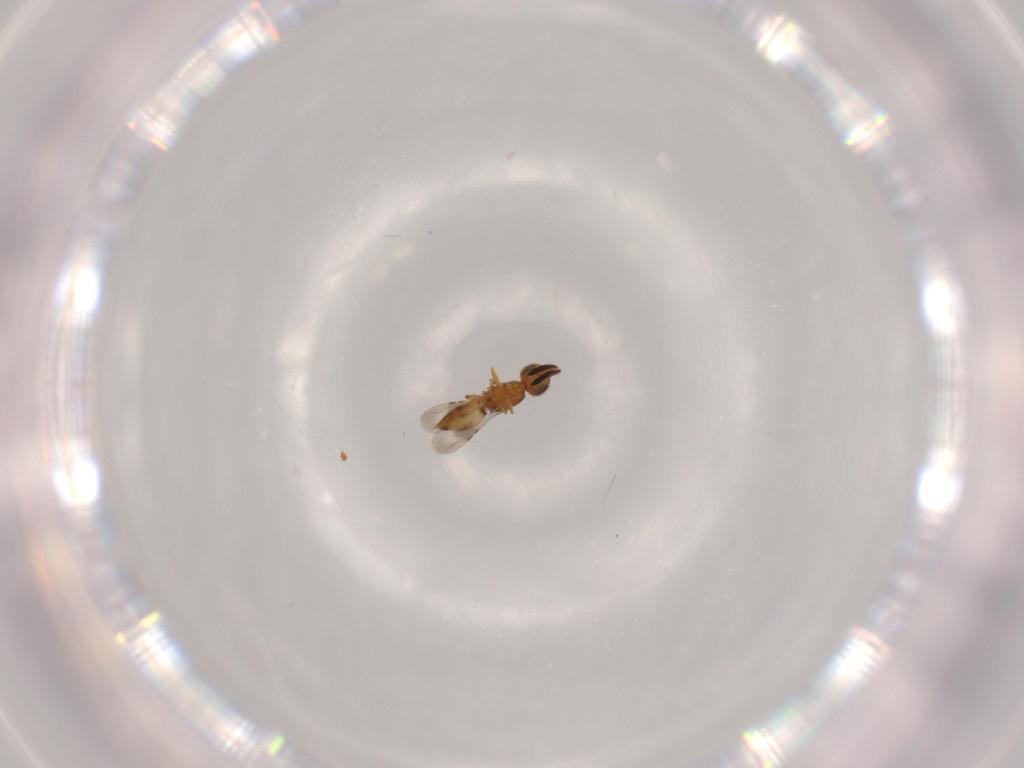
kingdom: Animalia
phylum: Arthropoda
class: Insecta
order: Hymenoptera
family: Ceraphronidae
